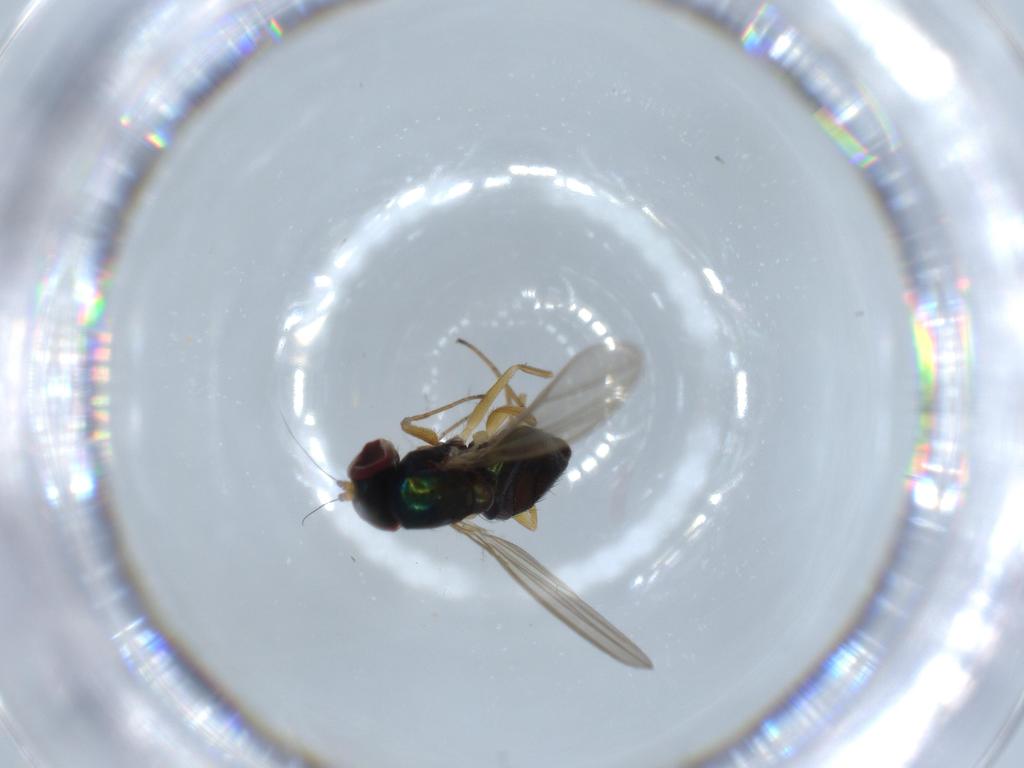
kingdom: Animalia
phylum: Arthropoda
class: Insecta
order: Diptera
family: Dolichopodidae
